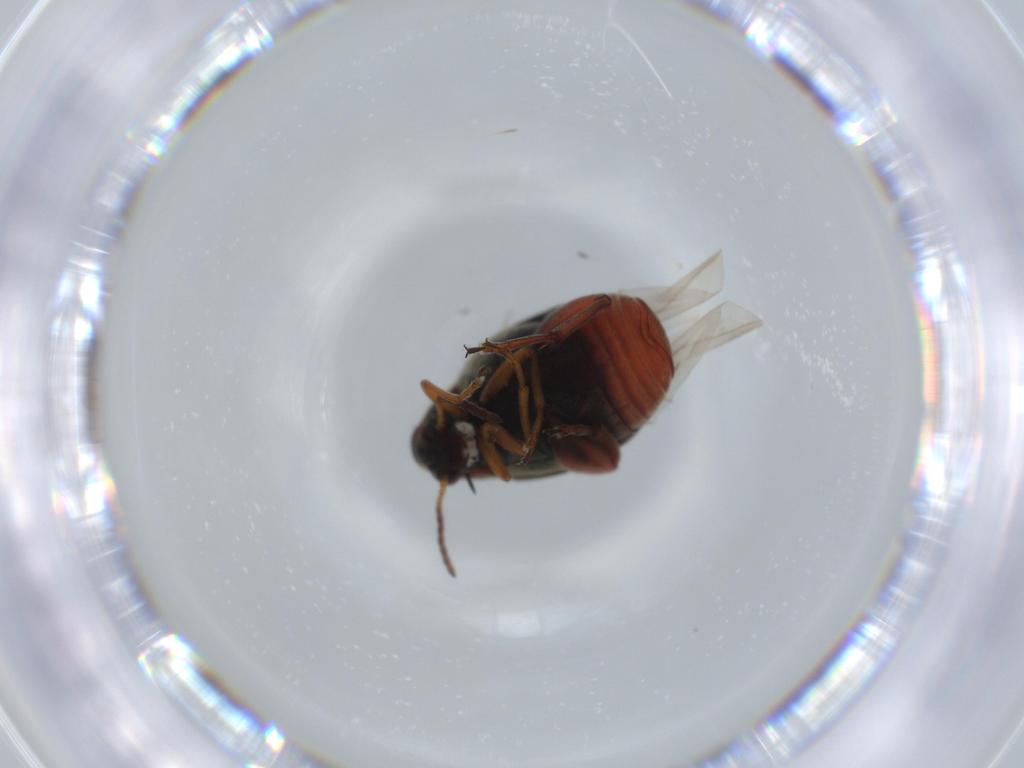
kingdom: Animalia
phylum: Arthropoda
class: Insecta
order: Coleoptera
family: Chrysomelidae
